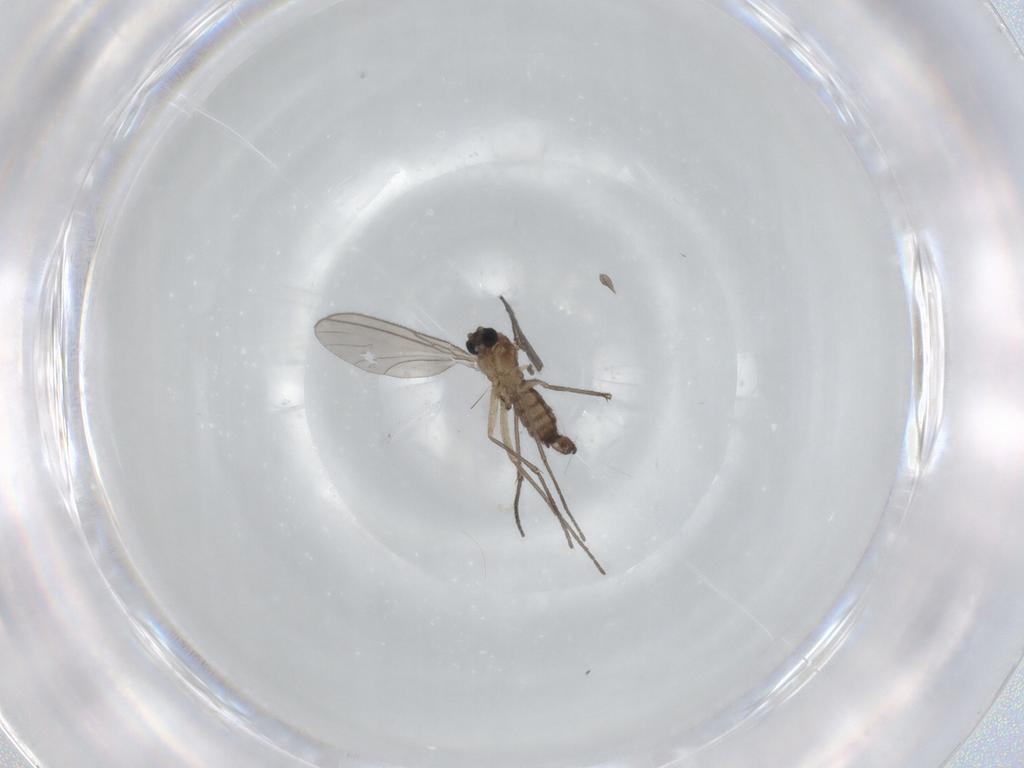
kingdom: Animalia
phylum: Arthropoda
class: Insecta
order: Diptera
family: Sciaridae
